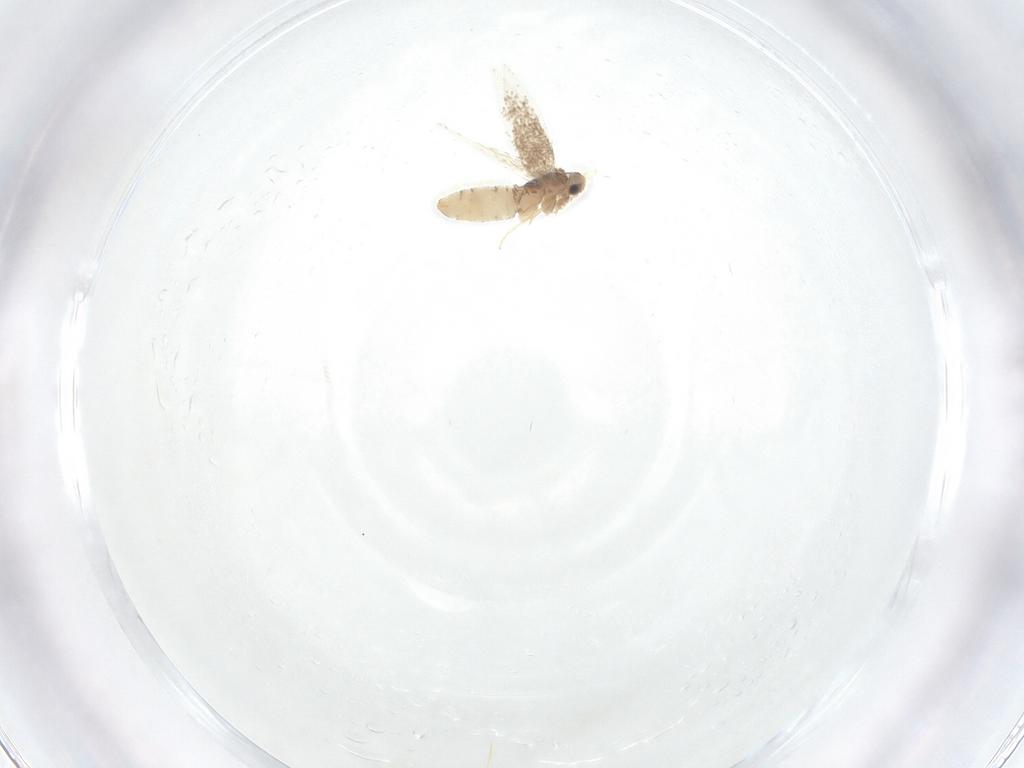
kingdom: Animalia
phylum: Arthropoda
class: Insecta
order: Lepidoptera
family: Nepticulidae
